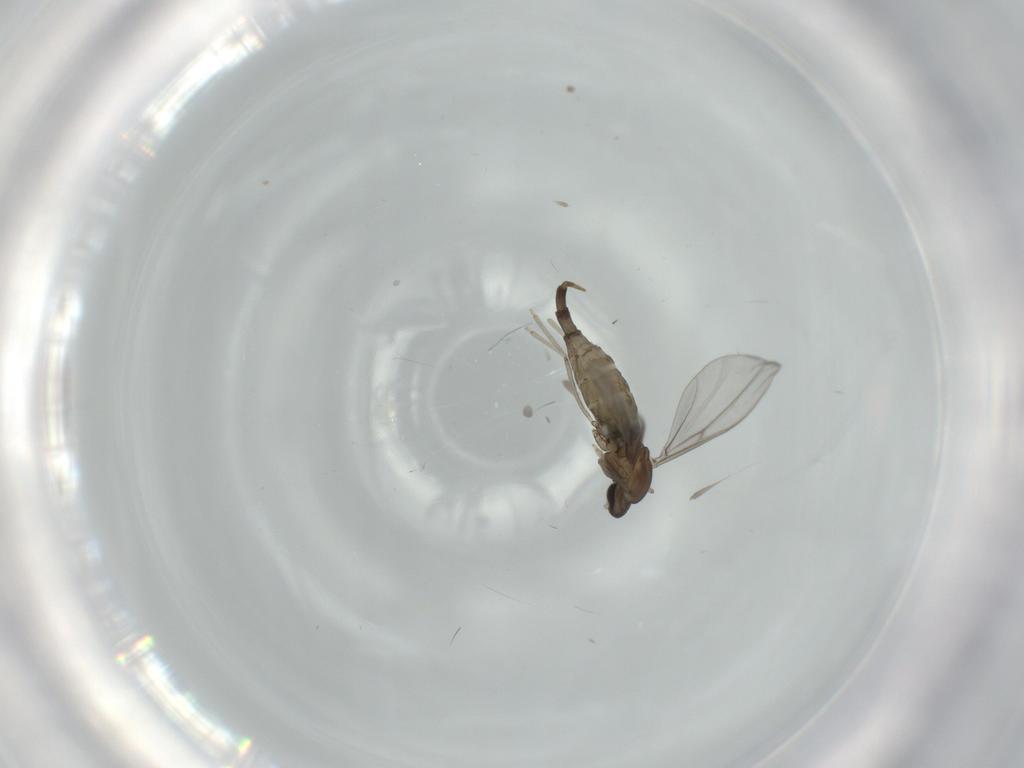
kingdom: Animalia
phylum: Arthropoda
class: Insecta
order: Diptera
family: Cecidomyiidae
